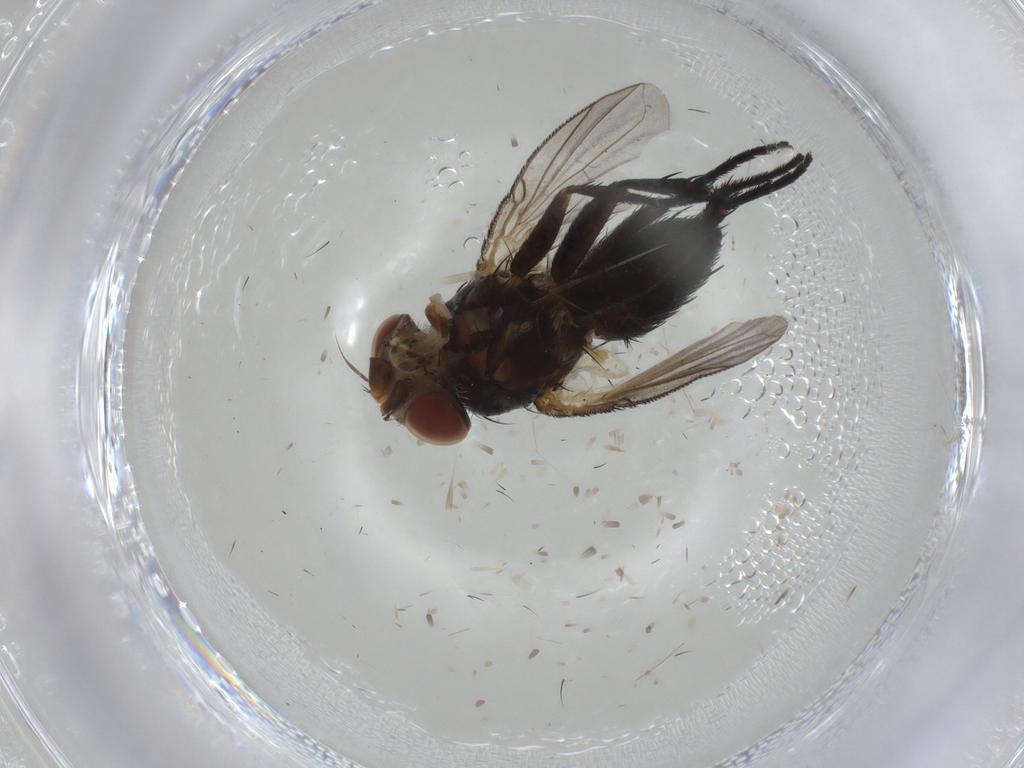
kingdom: Animalia
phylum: Arthropoda
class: Insecta
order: Diptera
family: Tachinidae
